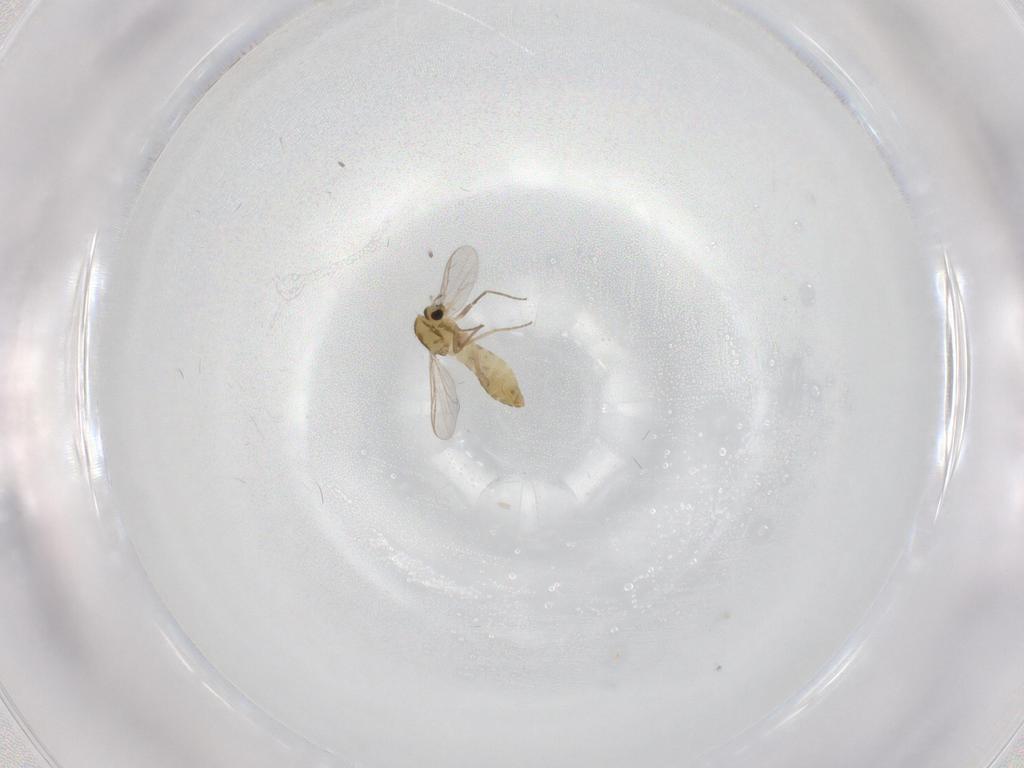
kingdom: Animalia
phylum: Arthropoda
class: Insecta
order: Diptera
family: Chironomidae
